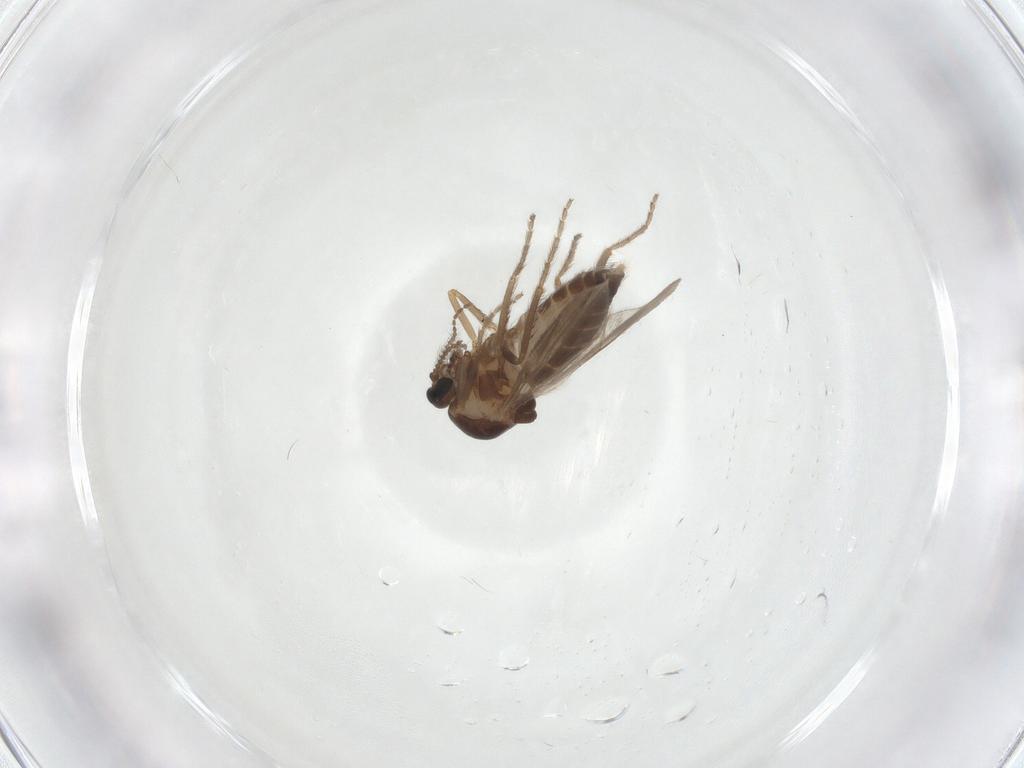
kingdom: Animalia
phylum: Arthropoda
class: Insecta
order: Diptera
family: Ceratopogonidae
